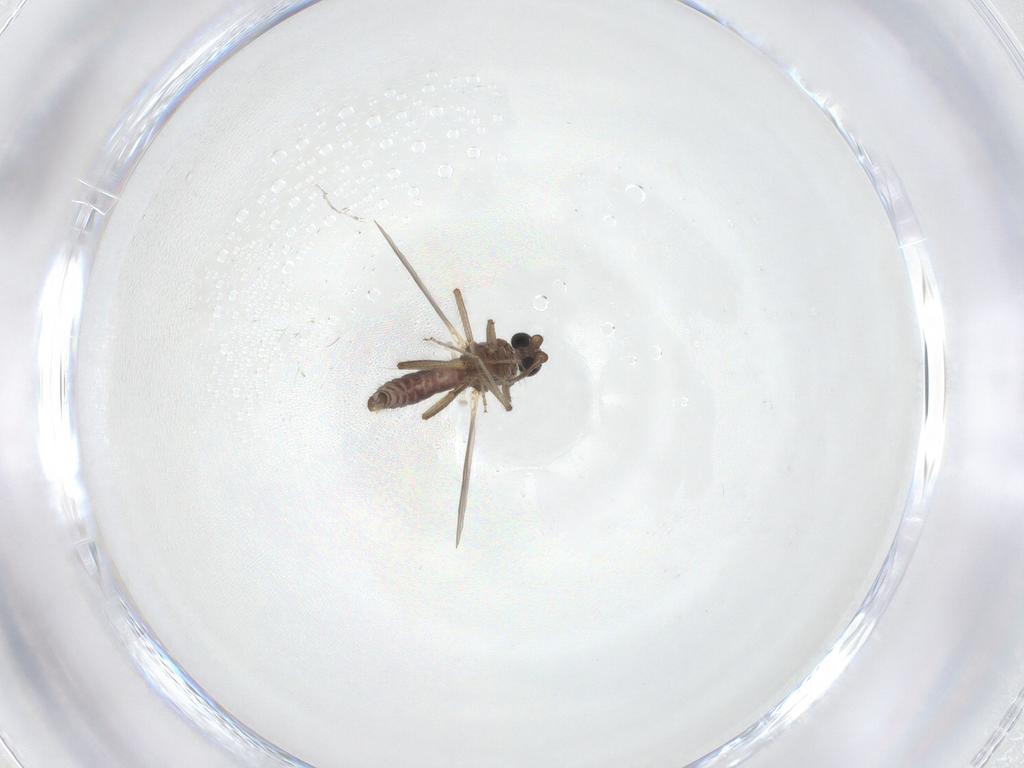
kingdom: Animalia
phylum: Arthropoda
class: Insecta
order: Diptera
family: Ceratopogonidae
